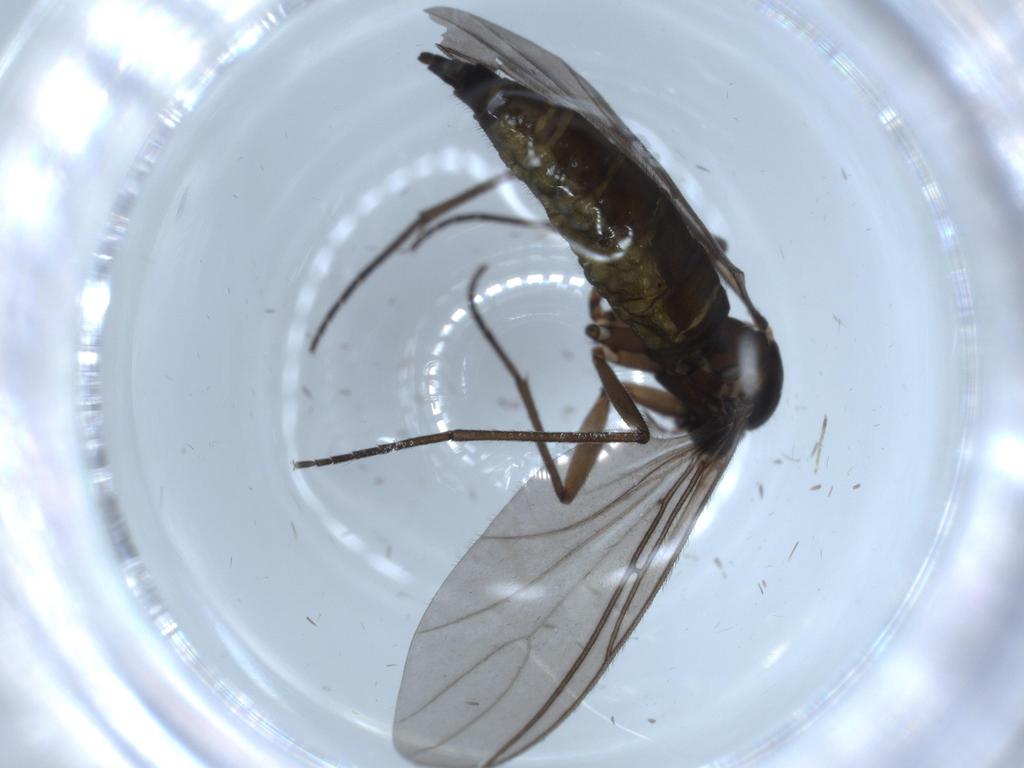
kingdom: Animalia
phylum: Arthropoda
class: Insecta
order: Diptera
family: Sciaridae
